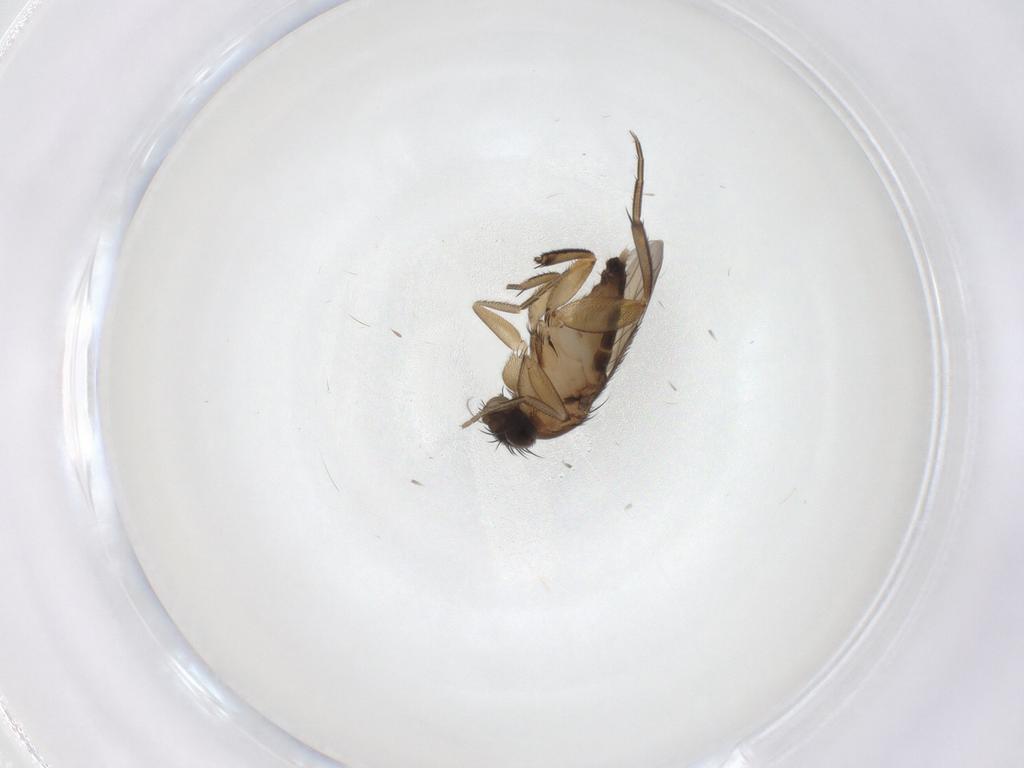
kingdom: Animalia
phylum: Arthropoda
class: Insecta
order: Diptera
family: Phoridae
